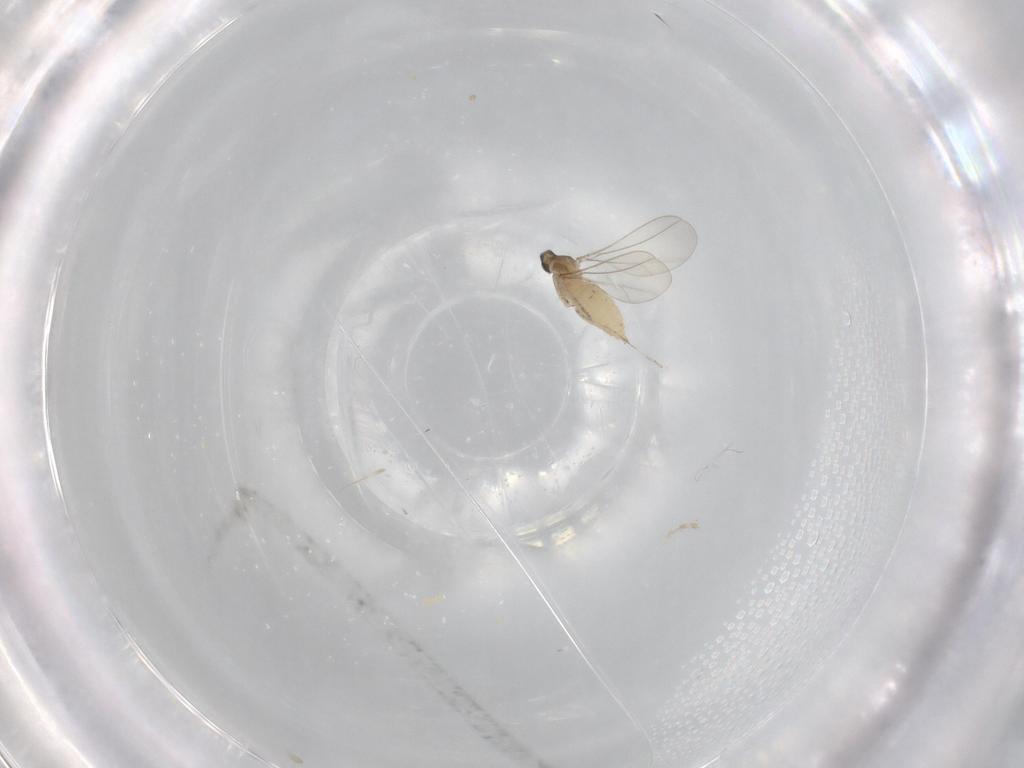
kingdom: Animalia
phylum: Arthropoda
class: Insecta
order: Diptera
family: Cecidomyiidae
